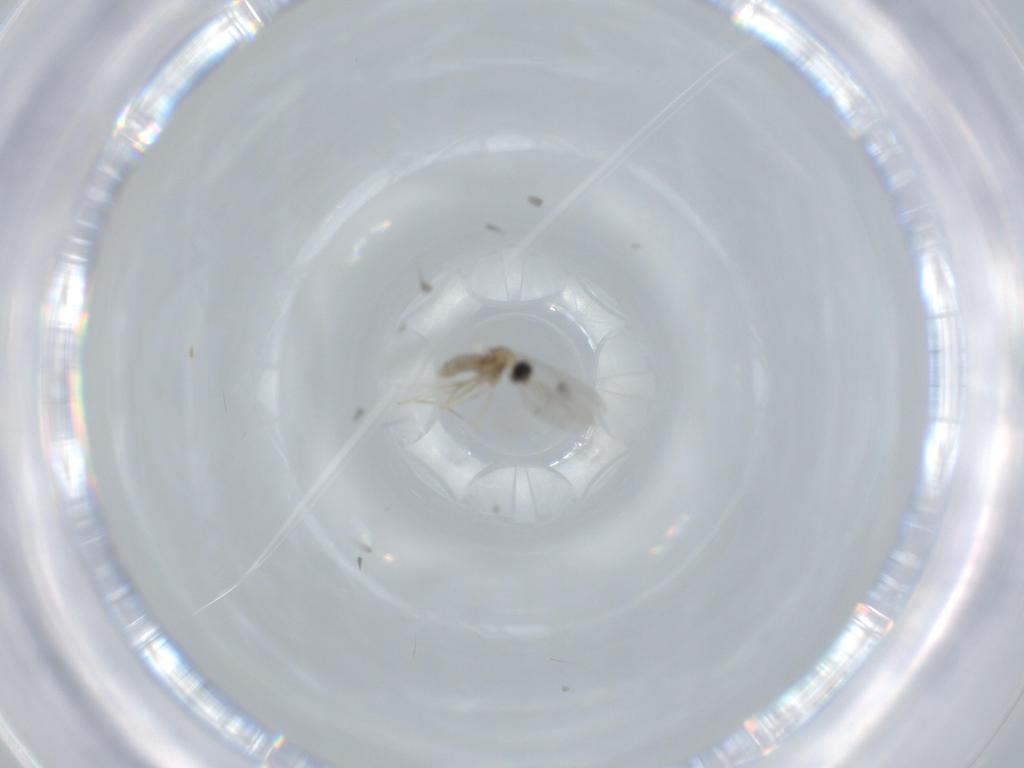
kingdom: Animalia
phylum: Arthropoda
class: Insecta
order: Diptera
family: Cecidomyiidae
